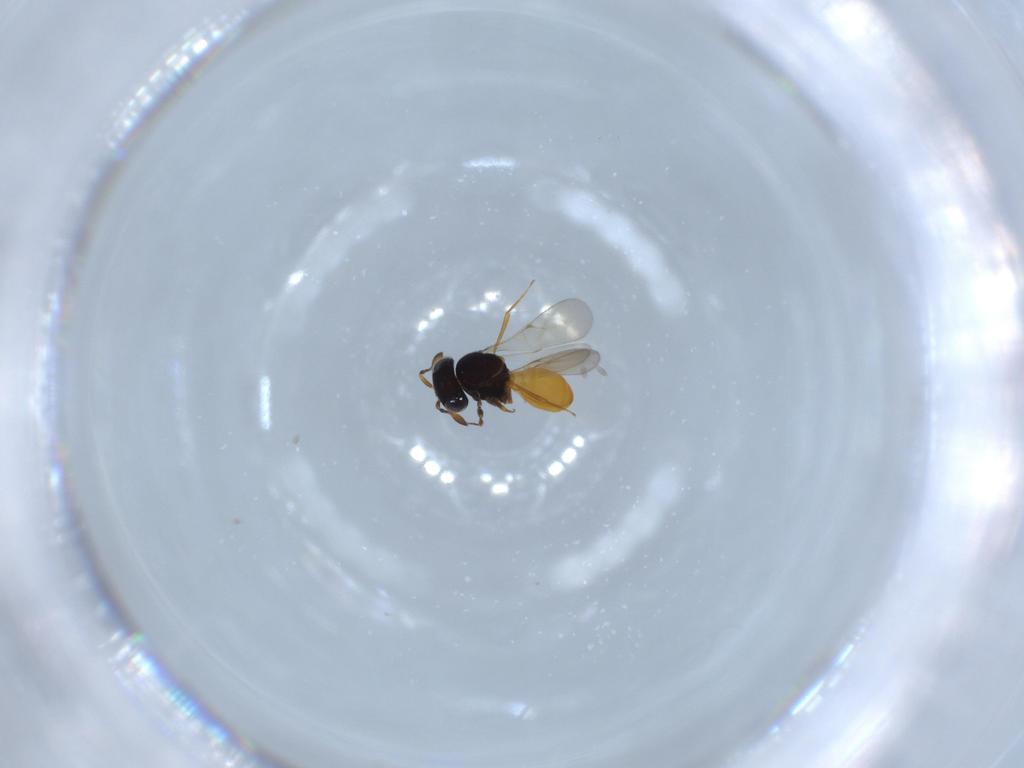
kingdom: Animalia
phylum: Arthropoda
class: Insecta
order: Hymenoptera
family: Scelionidae
